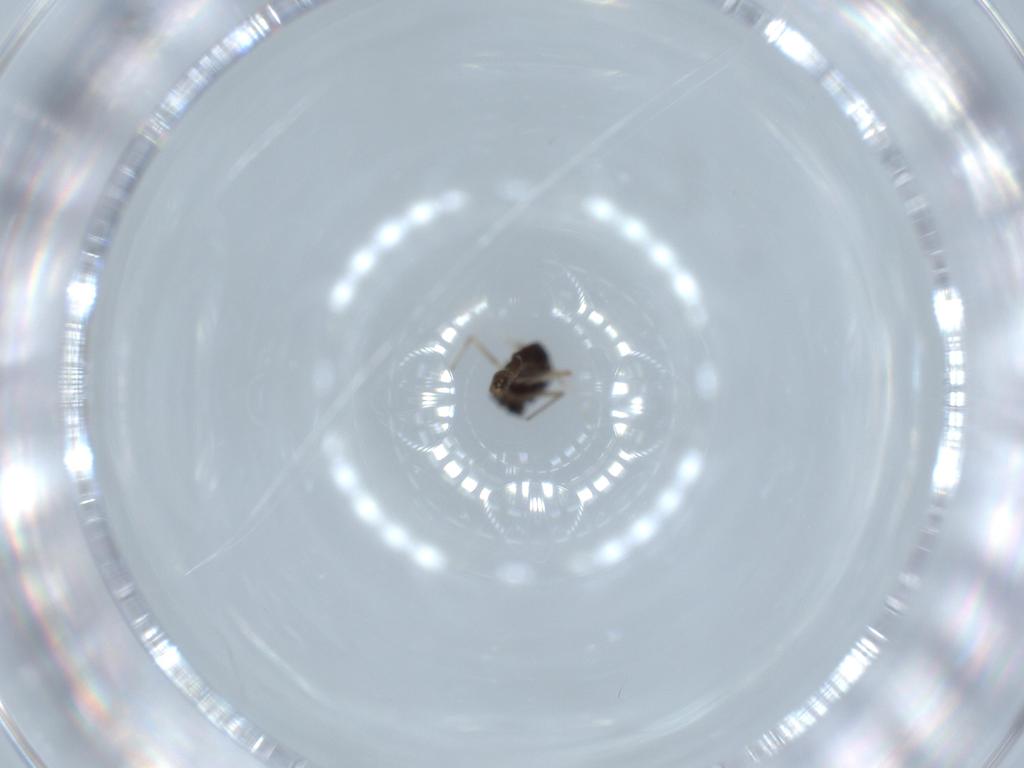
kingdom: Animalia
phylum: Arthropoda
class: Insecta
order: Diptera
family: Chironomidae
